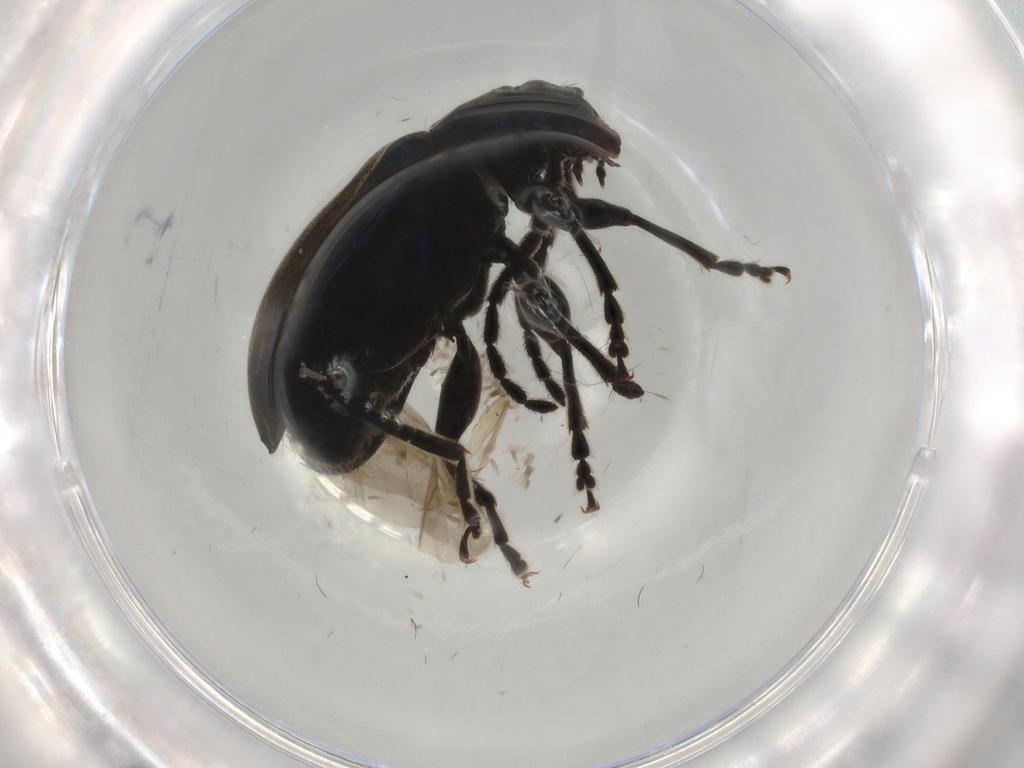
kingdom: Animalia
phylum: Arthropoda
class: Insecta
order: Coleoptera
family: Chrysomelidae
